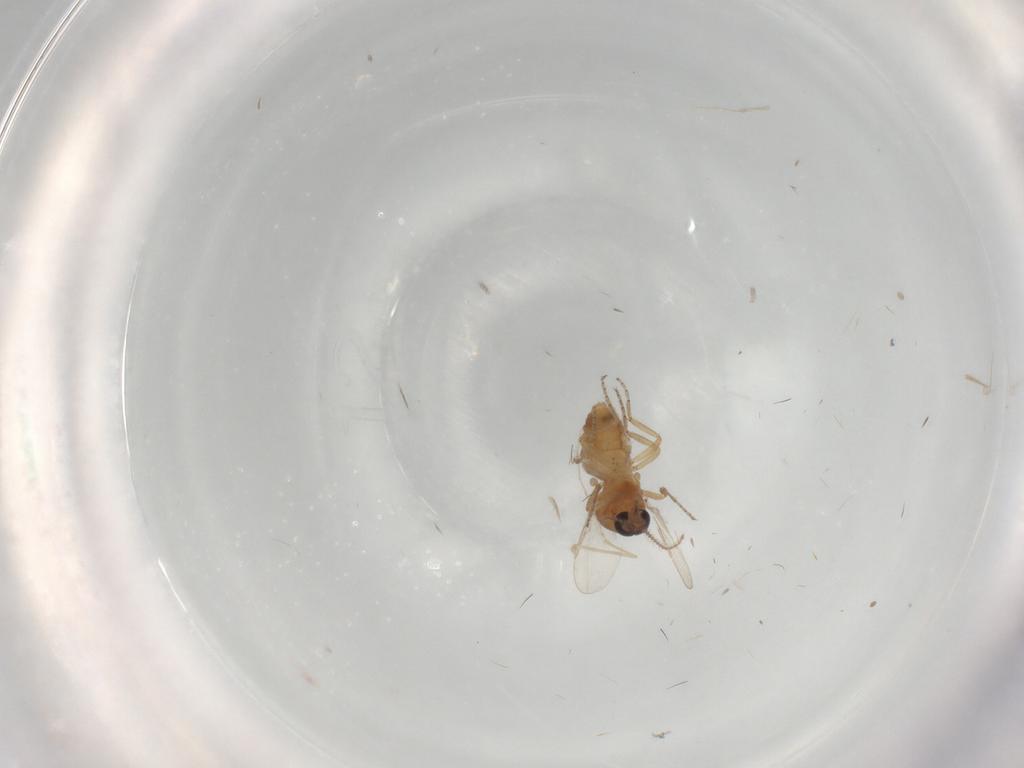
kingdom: Animalia
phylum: Arthropoda
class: Insecta
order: Diptera
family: Ceratopogonidae
